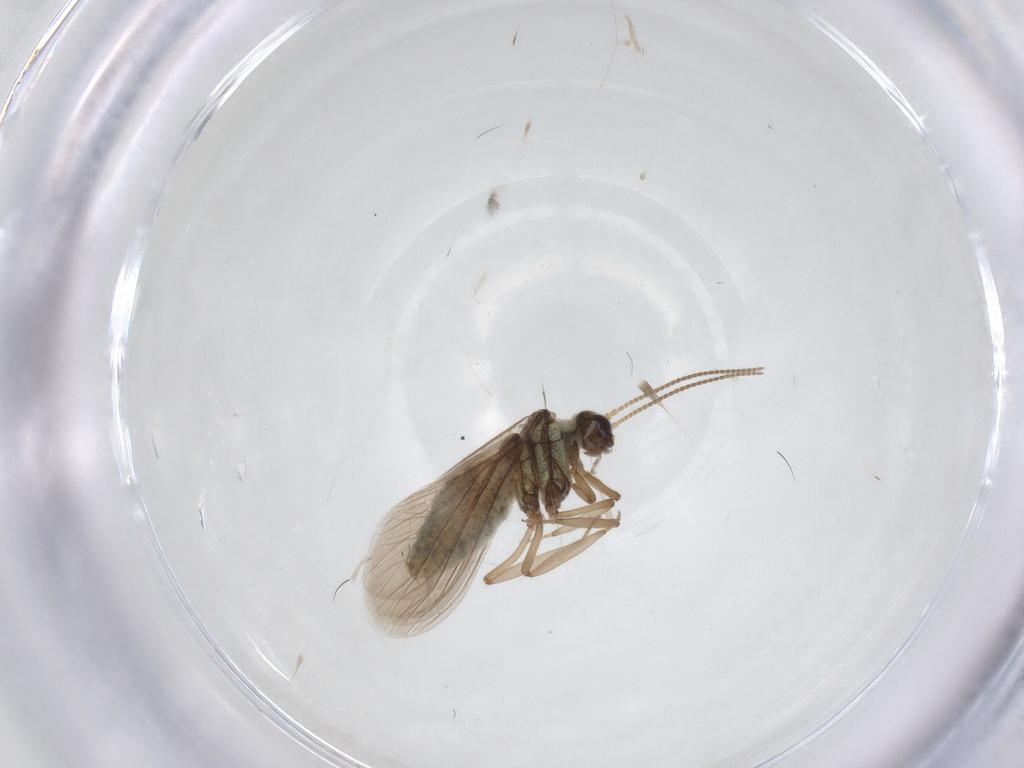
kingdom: Animalia
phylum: Arthropoda
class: Insecta
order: Neuroptera
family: Coniopterygidae
